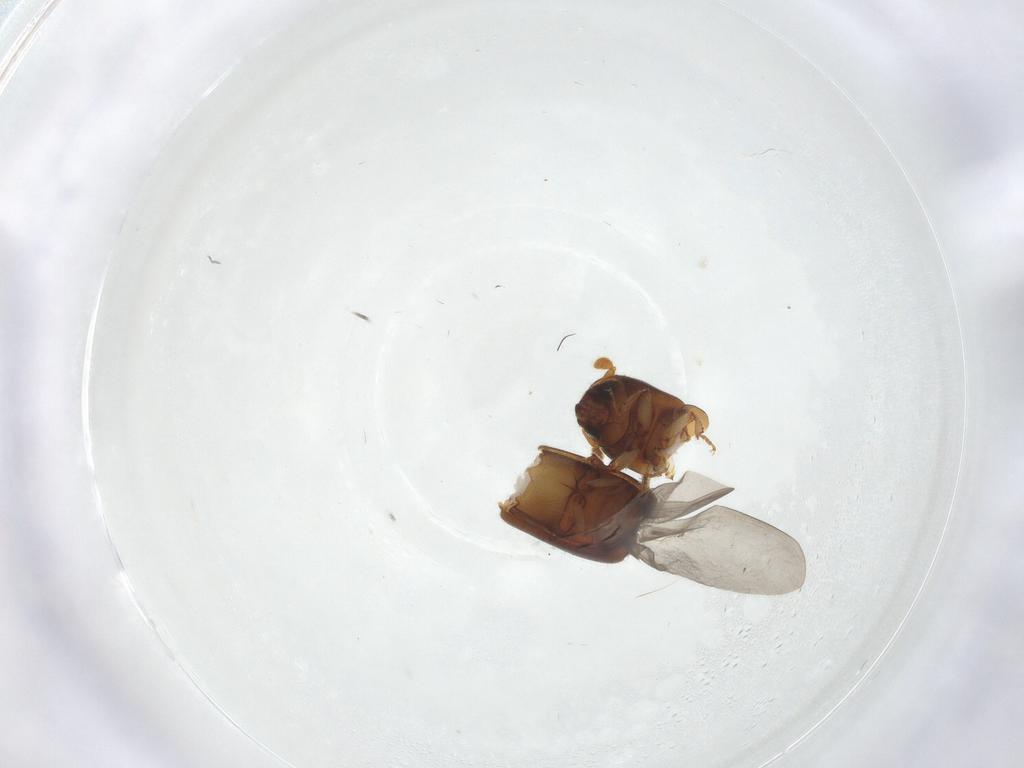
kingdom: Animalia
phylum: Arthropoda
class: Insecta
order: Coleoptera
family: Curculionidae
